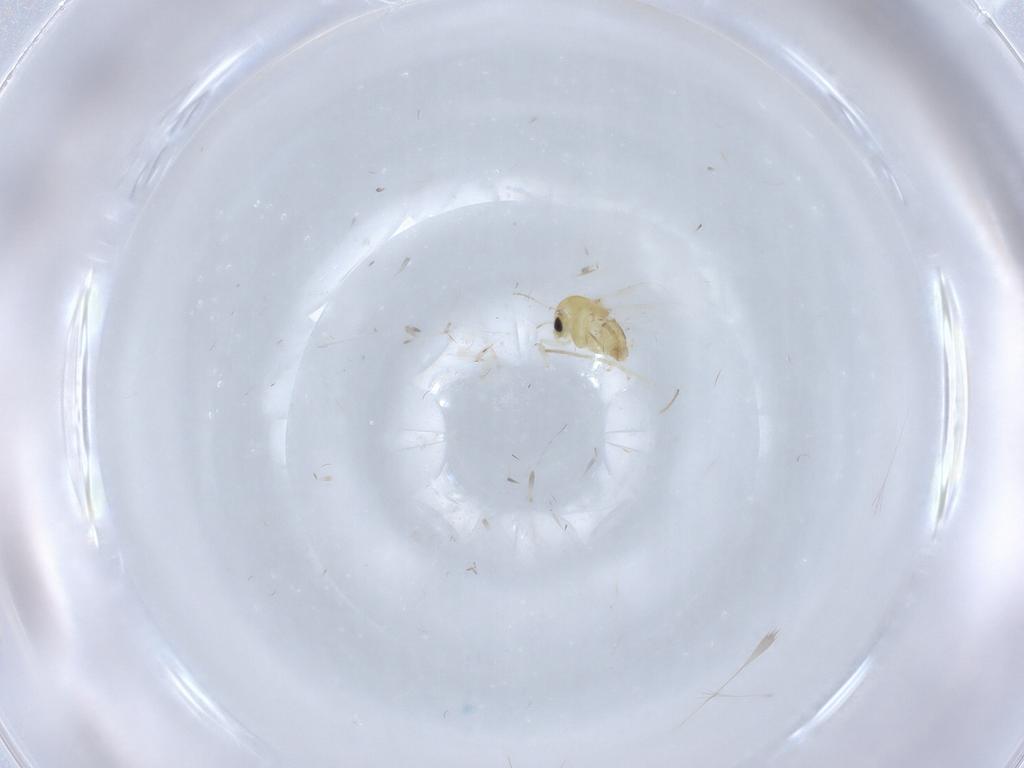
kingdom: Animalia
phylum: Arthropoda
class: Insecta
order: Diptera
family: Chironomidae
